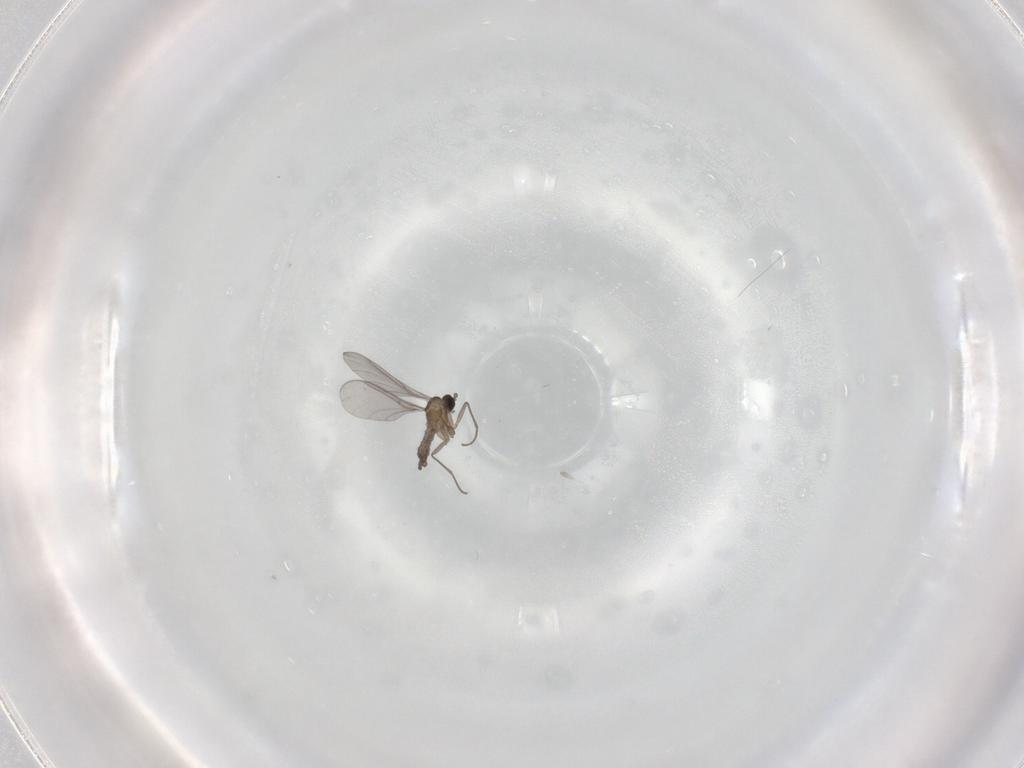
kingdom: Animalia
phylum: Arthropoda
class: Insecta
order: Diptera
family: Sciaridae
